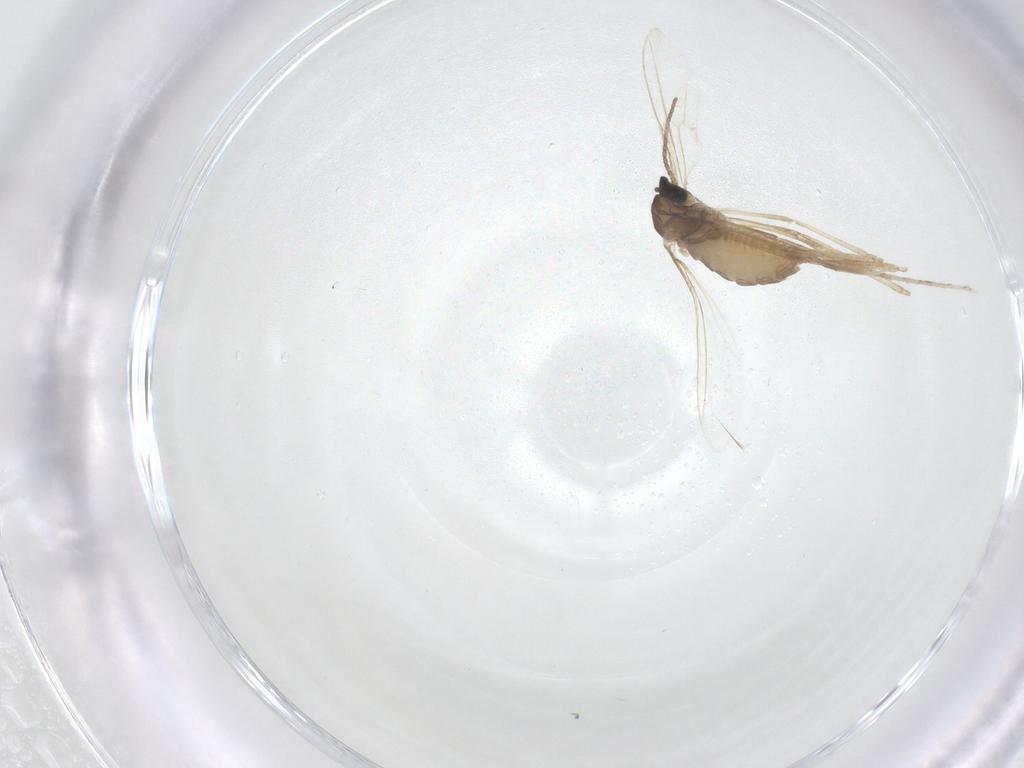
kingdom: Animalia
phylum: Arthropoda
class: Insecta
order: Diptera
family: Cecidomyiidae
